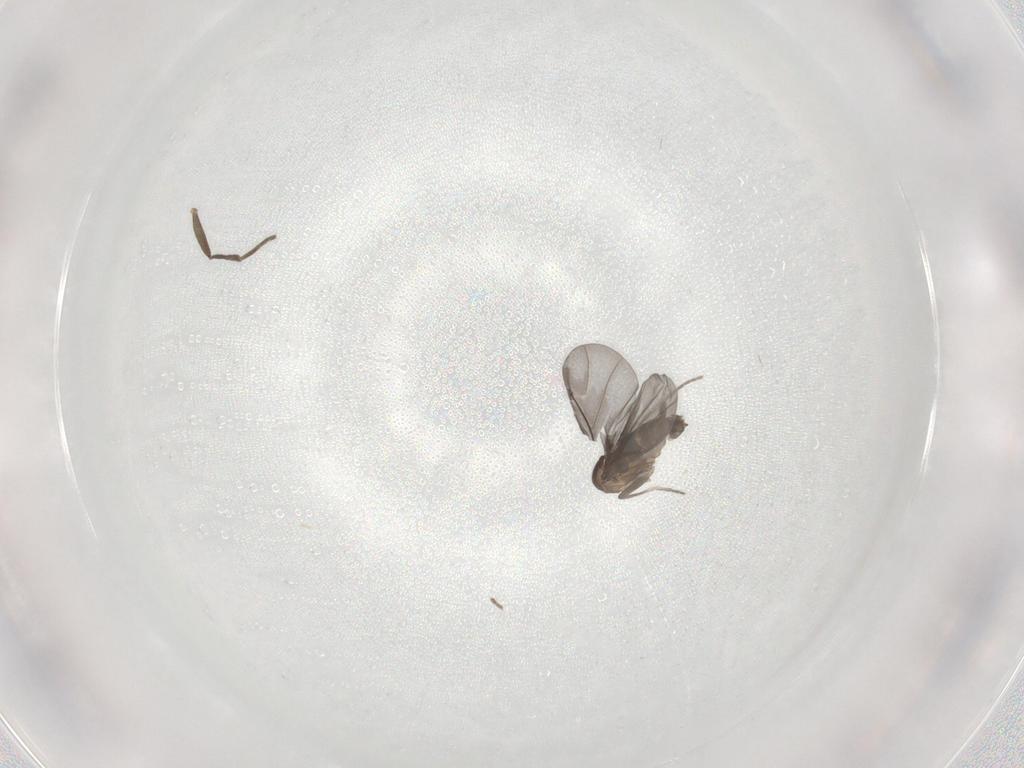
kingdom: Animalia
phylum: Arthropoda
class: Insecta
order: Diptera
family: Phoridae
